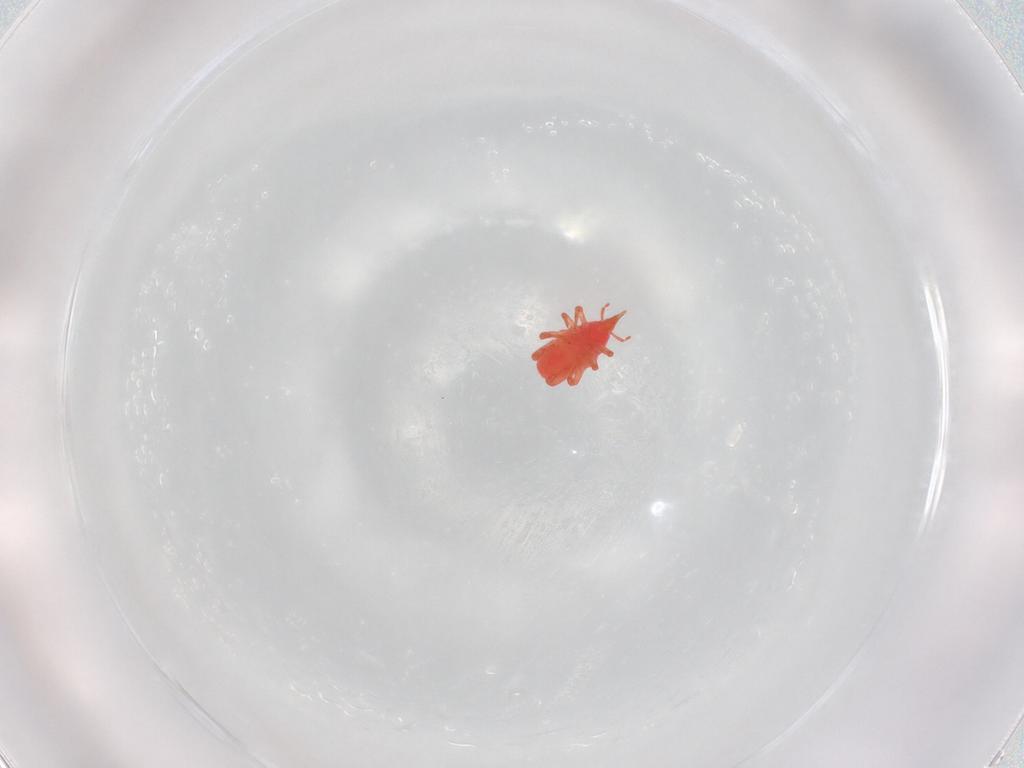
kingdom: Animalia
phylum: Arthropoda
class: Arachnida
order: Trombidiformes
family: Bdellidae
